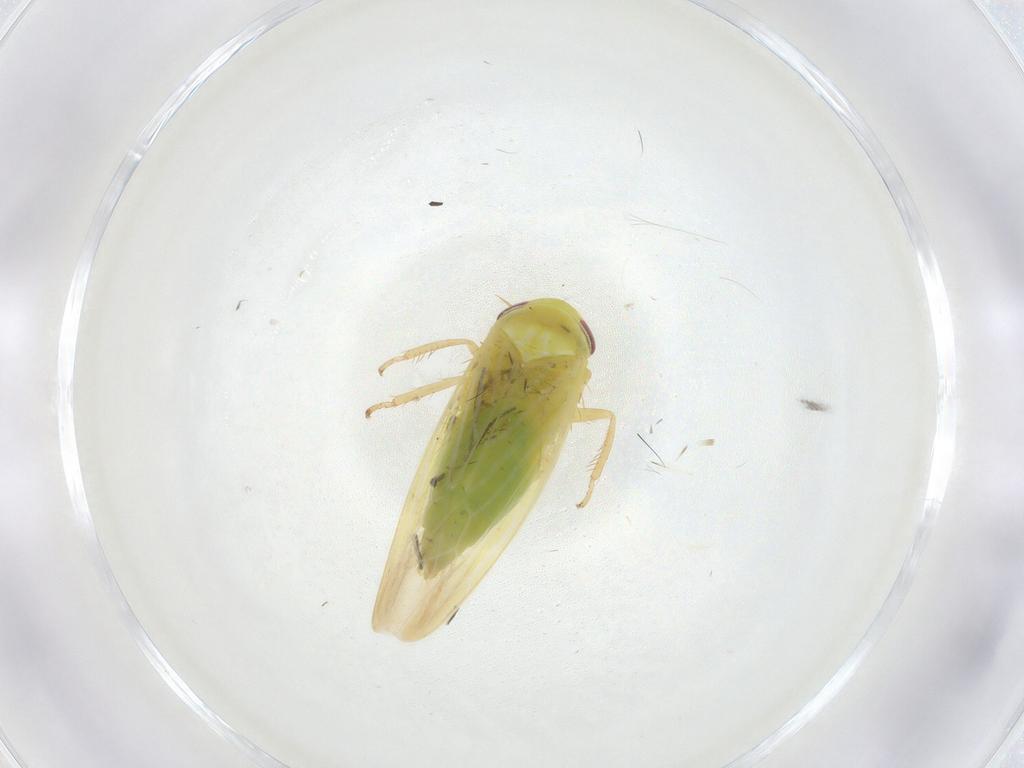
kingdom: Animalia
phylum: Arthropoda
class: Insecta
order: Hemiptera
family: Cicadellidae
